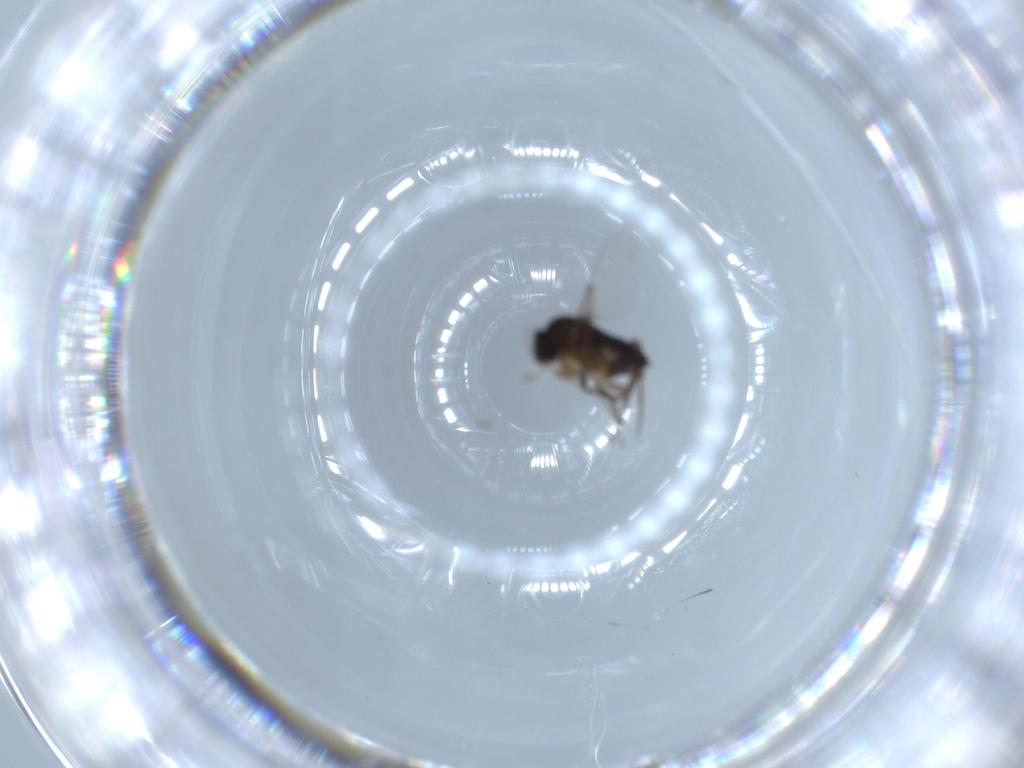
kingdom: Animalia
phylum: Arthropoda
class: Insecta
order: Diptera
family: Phoridae
